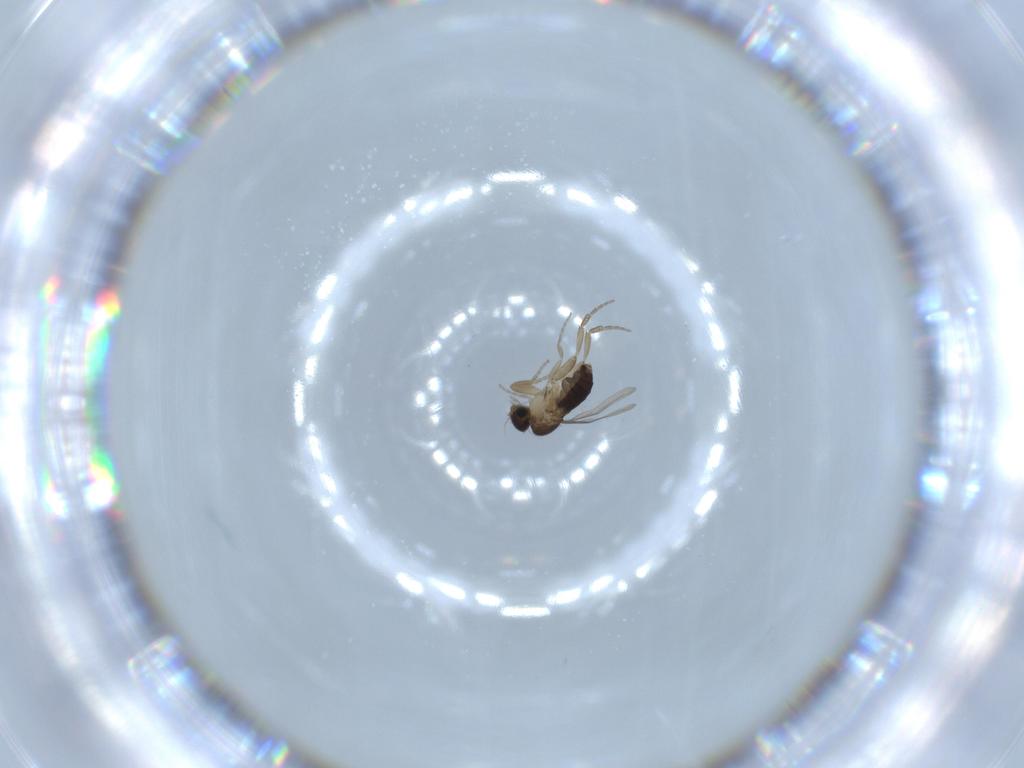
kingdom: Animalia
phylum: Arthropoda
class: Insecta
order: Diptera
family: Phoridae
